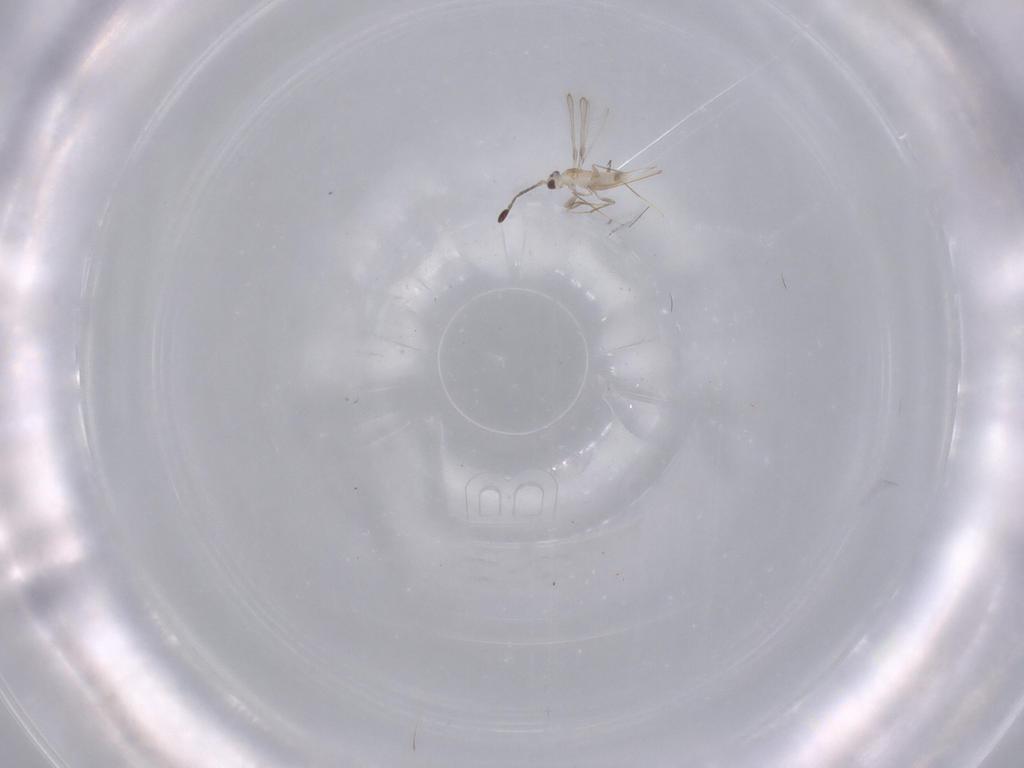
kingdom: Animalia
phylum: Arthropoda
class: Insecta
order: Hymenoptera
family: Mymaridae
